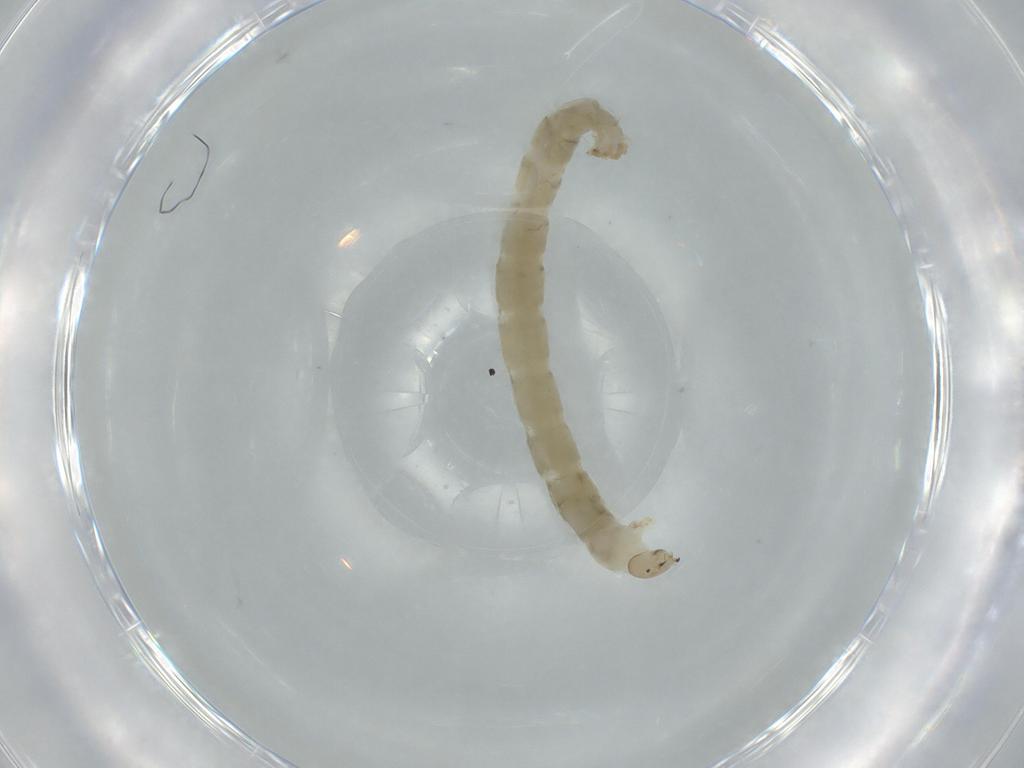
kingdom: Animalia
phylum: Arthropoda
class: Insecta
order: Diptera
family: Chironomidae
